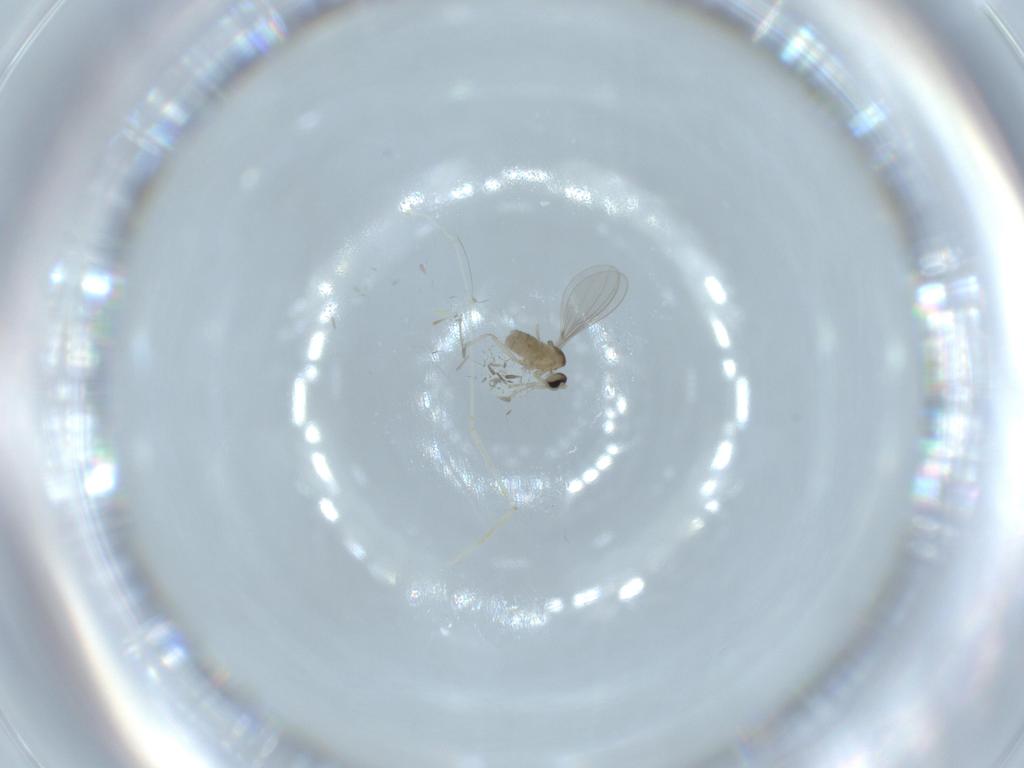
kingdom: Animalia
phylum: Arthropoda
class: Insecta
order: Diptera
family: Cecidomyiidae
